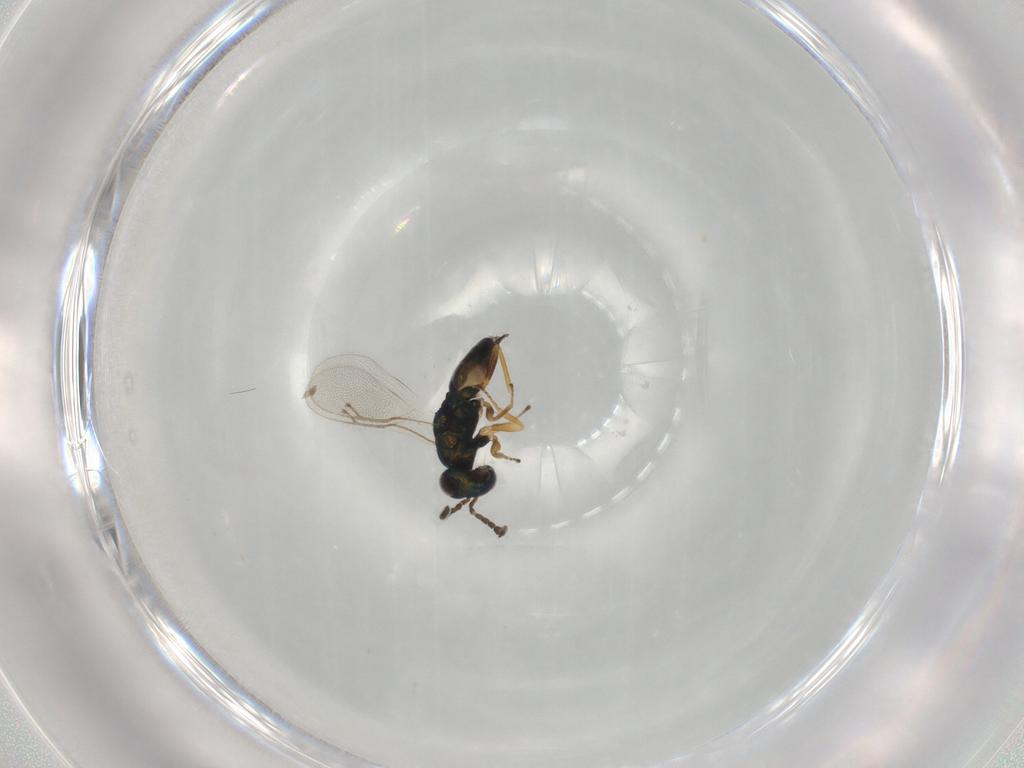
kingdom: Animalia
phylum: Arthropoda
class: Insecta
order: Hymenoptera
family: Pteromalidae
